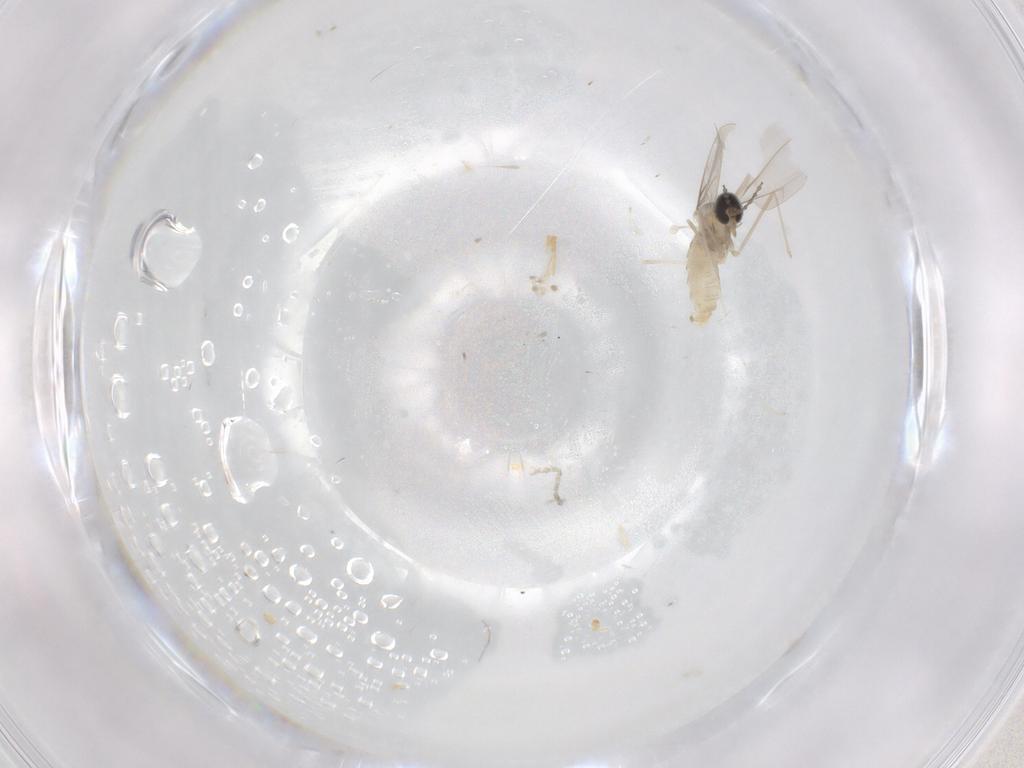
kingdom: Animalia
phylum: Arthropoda
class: Insecta
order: Diptera
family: Cecidomyiidae
